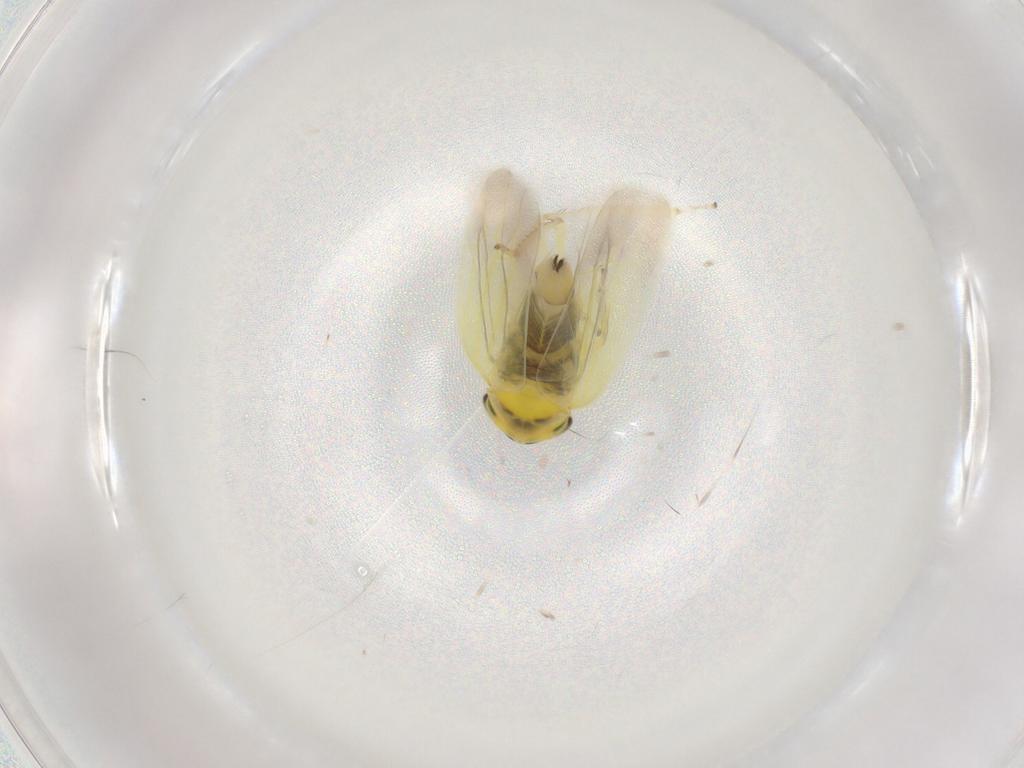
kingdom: Animalia
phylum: Arthropoda
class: Insecta
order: Hemiptera
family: Cicadellidae
